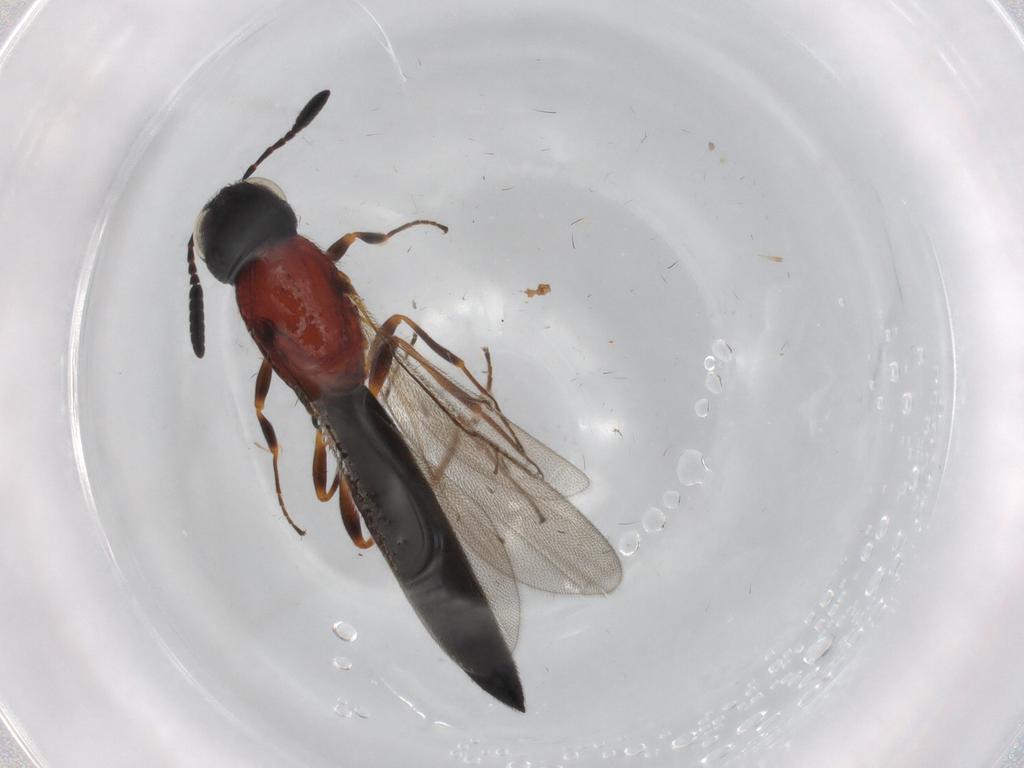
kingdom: Animalia
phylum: Arthropoda
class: Insecta
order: Hymenoptera
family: Scelionidae
